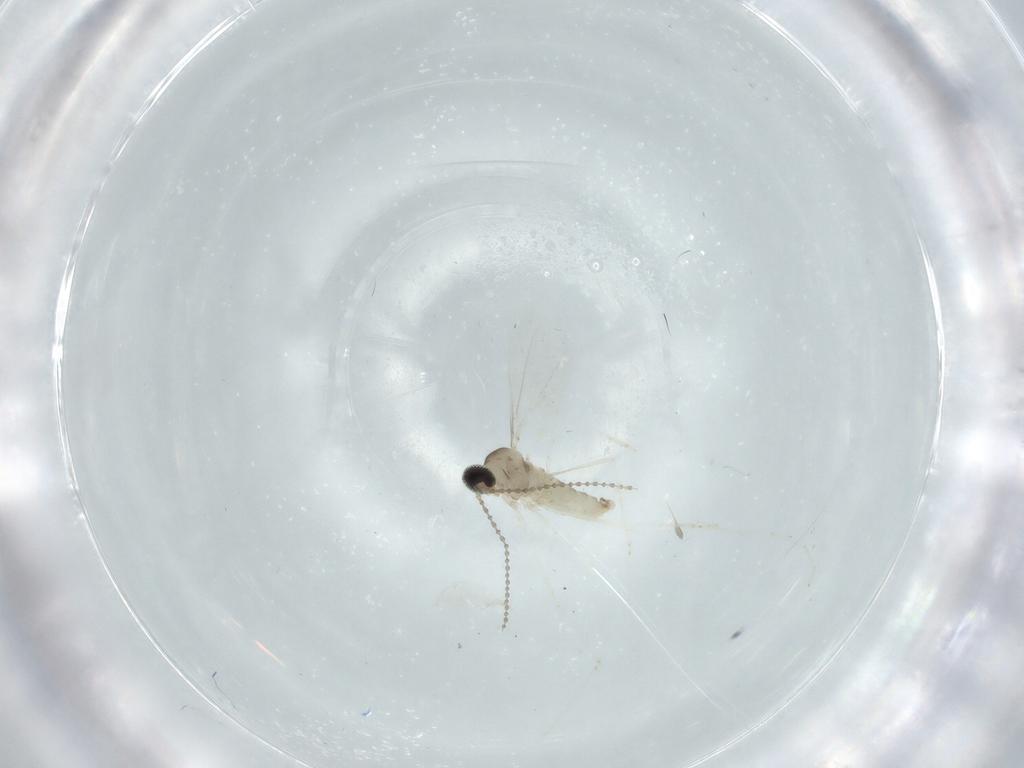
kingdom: Animalia
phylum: Arthropoda
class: Insecta
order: Diptera
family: Cecidomyiidae
